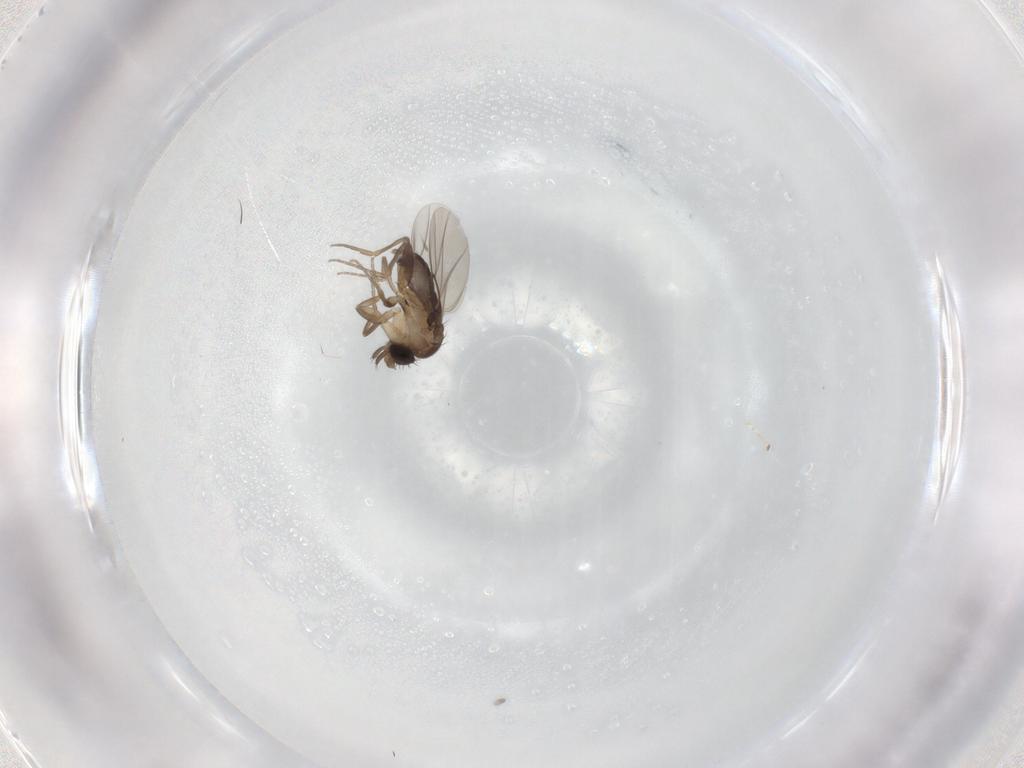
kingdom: Animalia
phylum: Arthropoda
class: Insecta
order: Diptera
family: Phoridae
